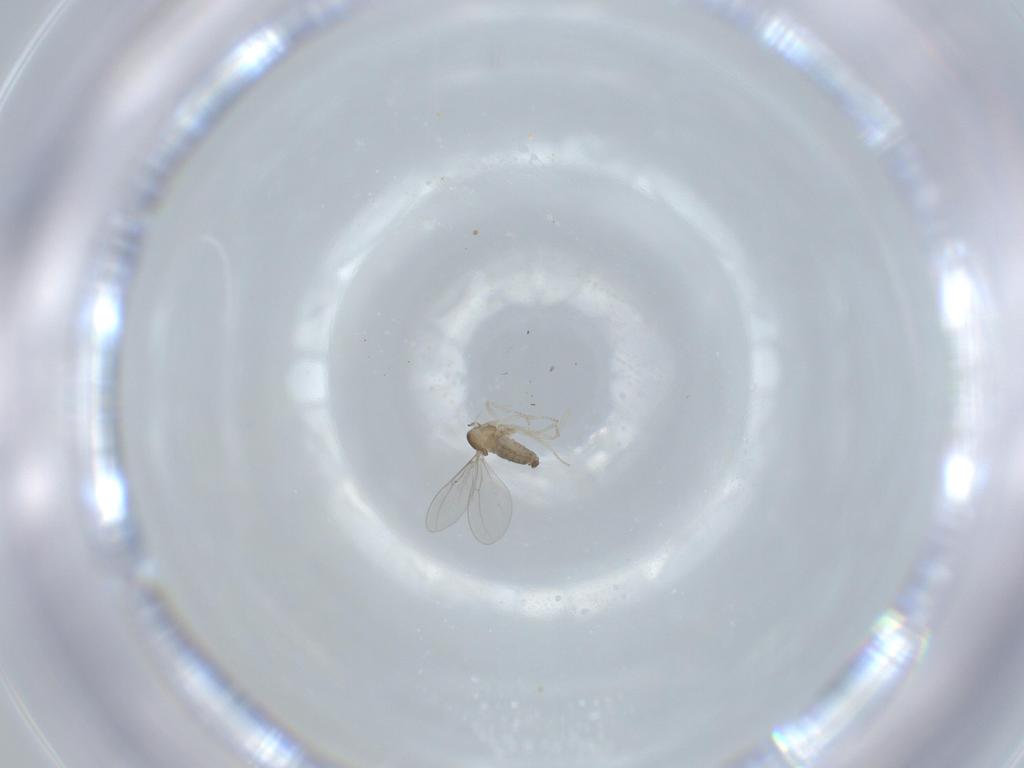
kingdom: Animalia
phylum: Arthropoda
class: Insecta
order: Diptera
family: Cecidomyiidae
